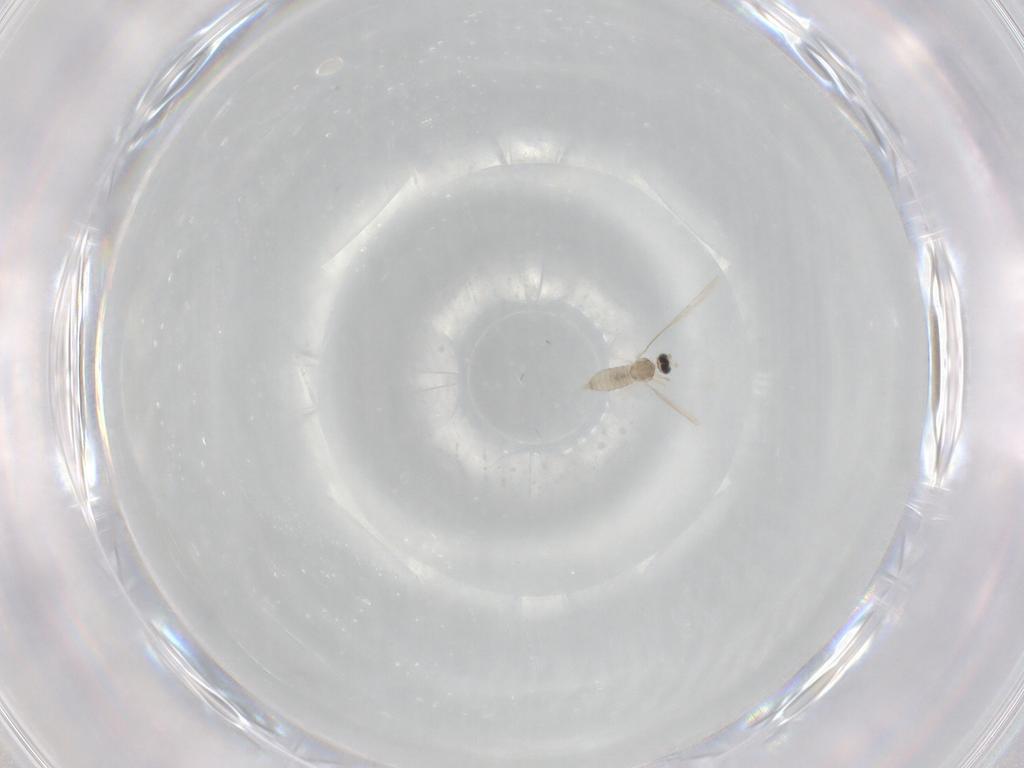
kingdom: Animalia
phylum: Arthropoda
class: Insecta
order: Diptera
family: Cecidomyiidae
